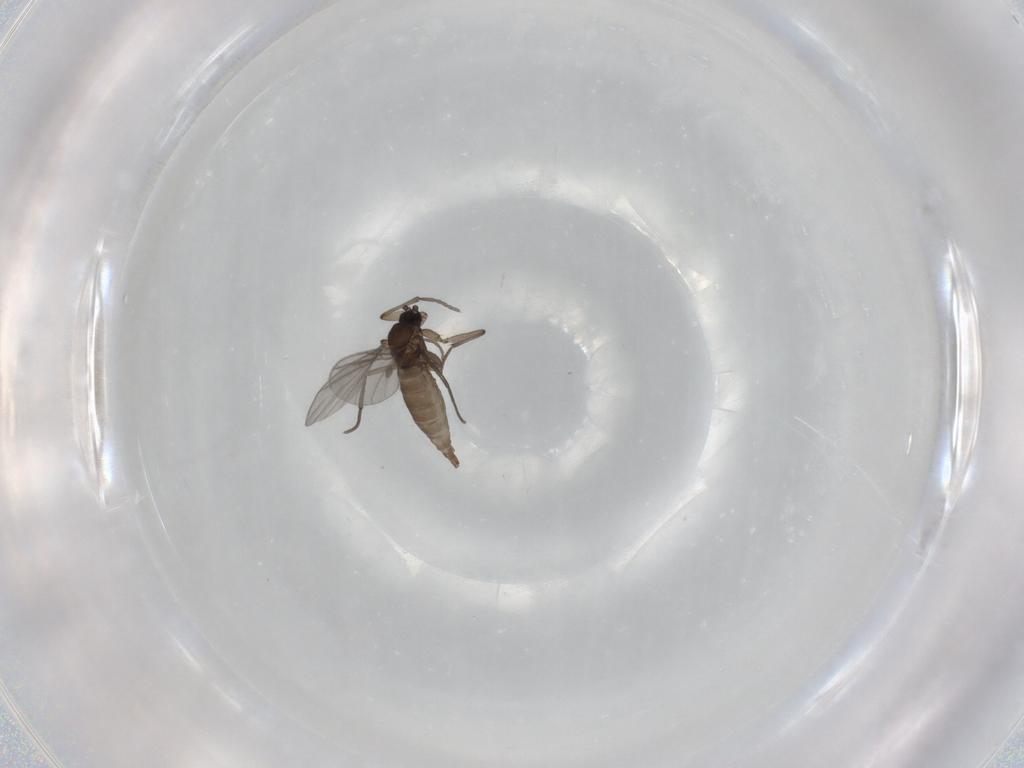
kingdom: Animalia
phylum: Arthropoda
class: Insecta
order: Diptera
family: Sciaridae
